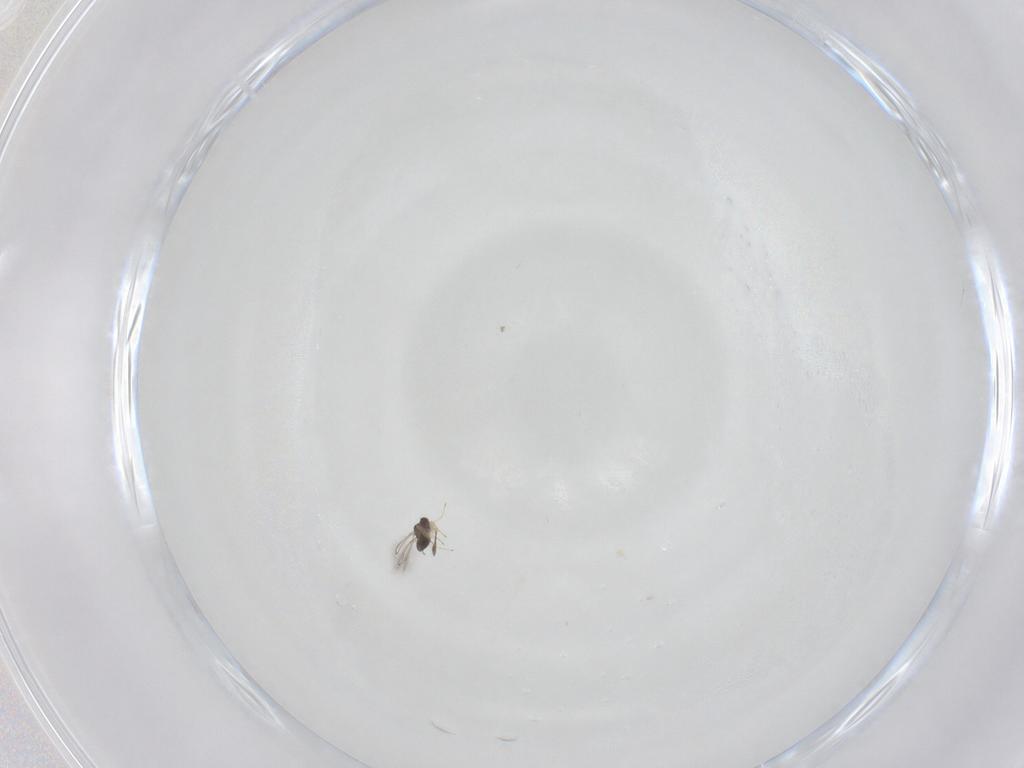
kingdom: Animalia
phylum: Arthropoda
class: Insecta
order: Hymenoptera
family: Mymaridae
